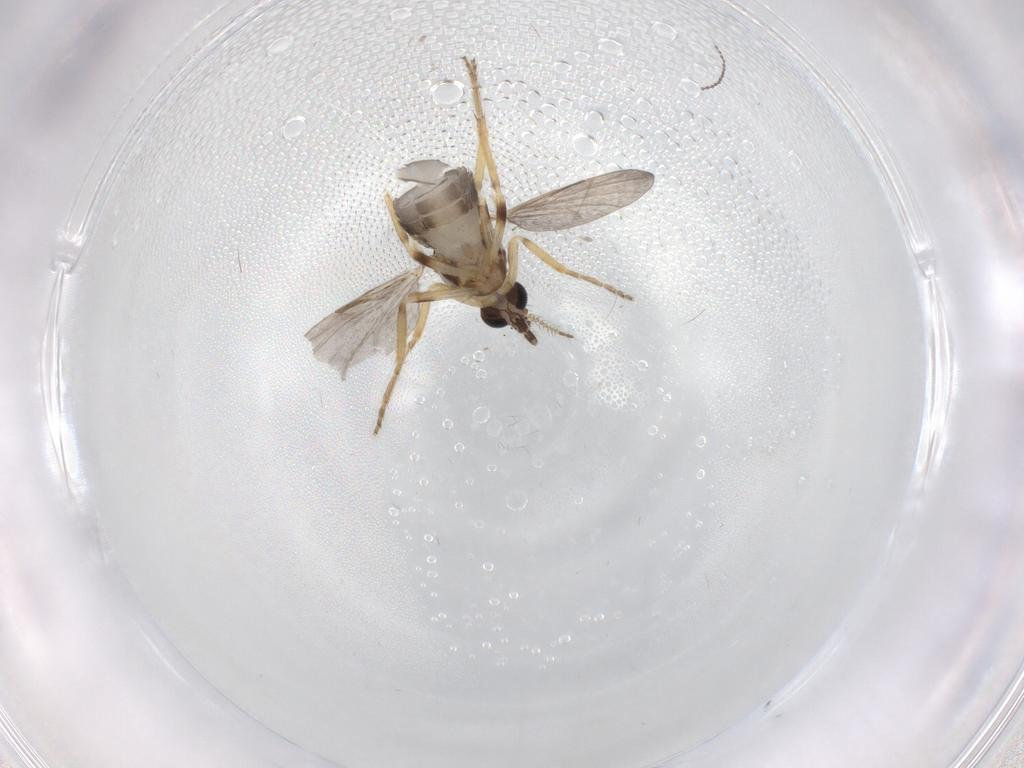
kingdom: Animalia
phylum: Arthropoda
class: Insecta
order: Diptera
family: Ceratopogonidae
